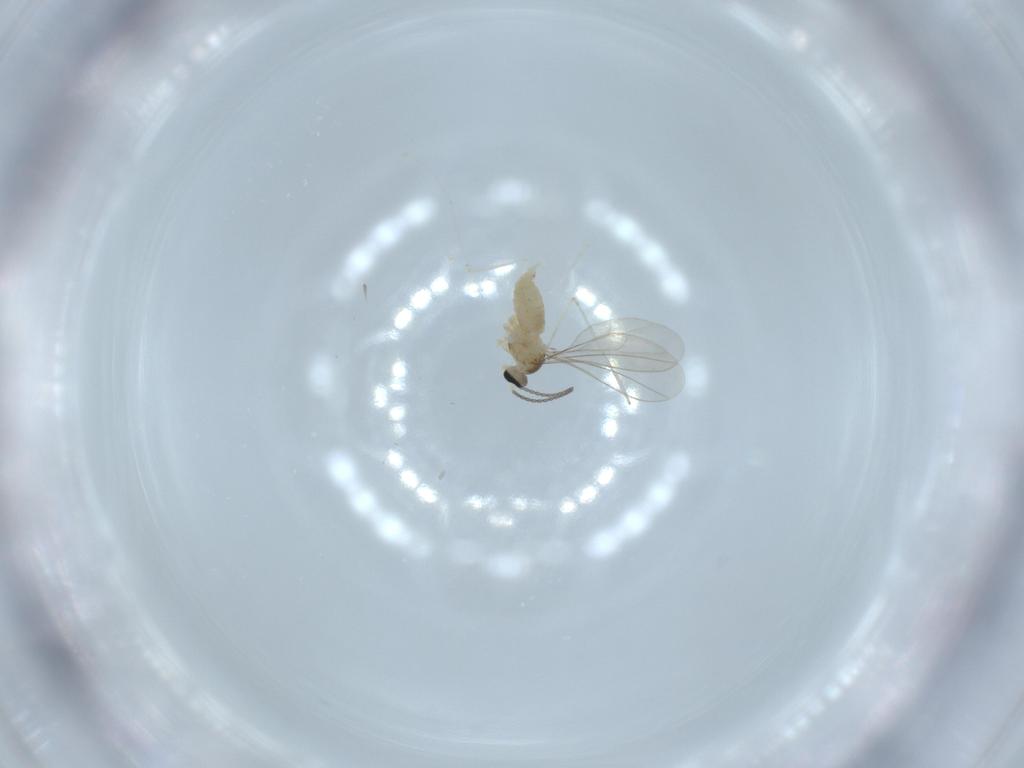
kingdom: Animalia
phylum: Arthropoda
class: Insecta
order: Diptera
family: Cecidomyiidae
